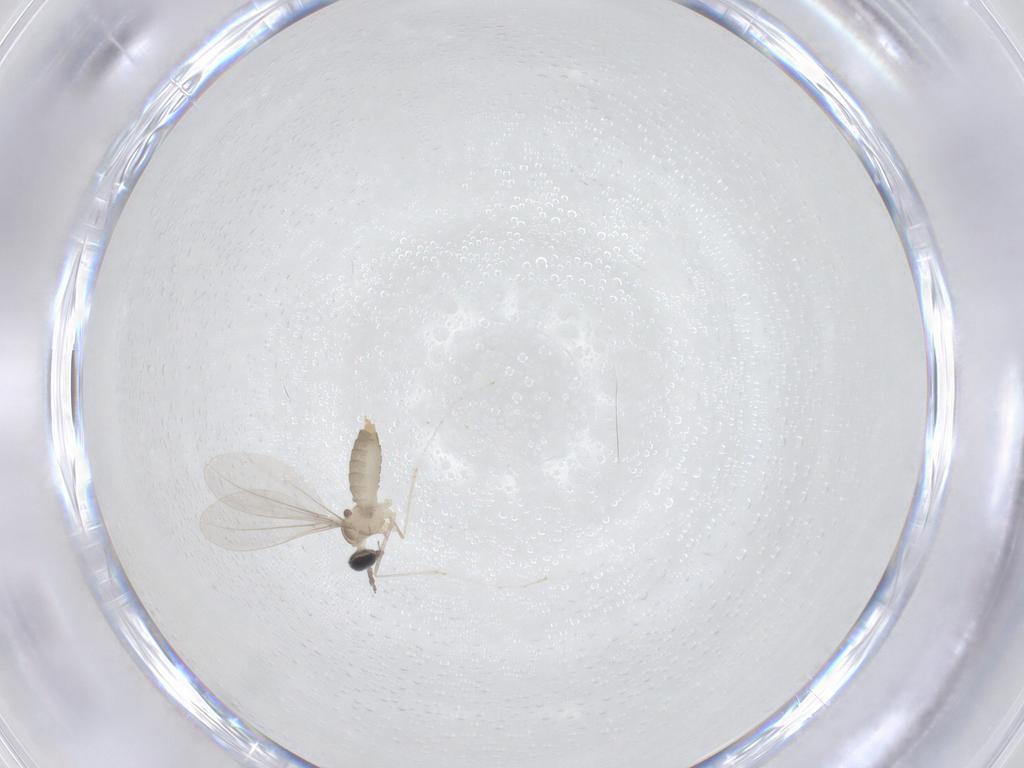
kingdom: Animalia
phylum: Arthropoda
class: Insecta
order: Diptera
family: Cecidomyiidae
